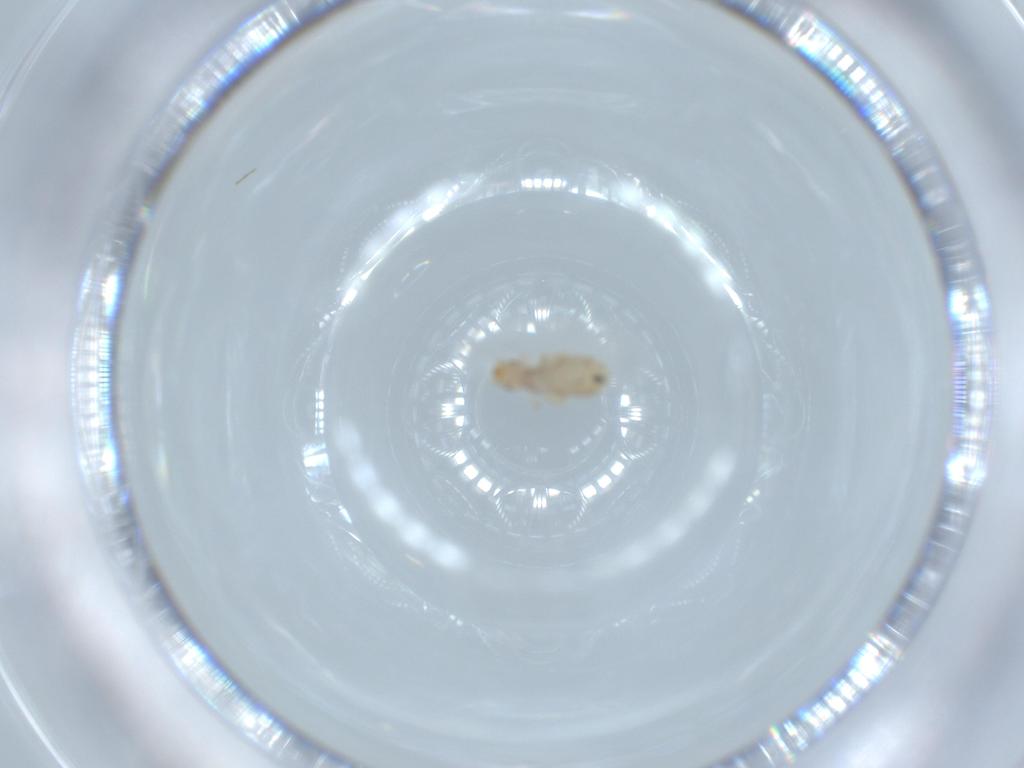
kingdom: Animalia
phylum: Arthropoda
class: Insecta
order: Psocodea
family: Liposcelididae
